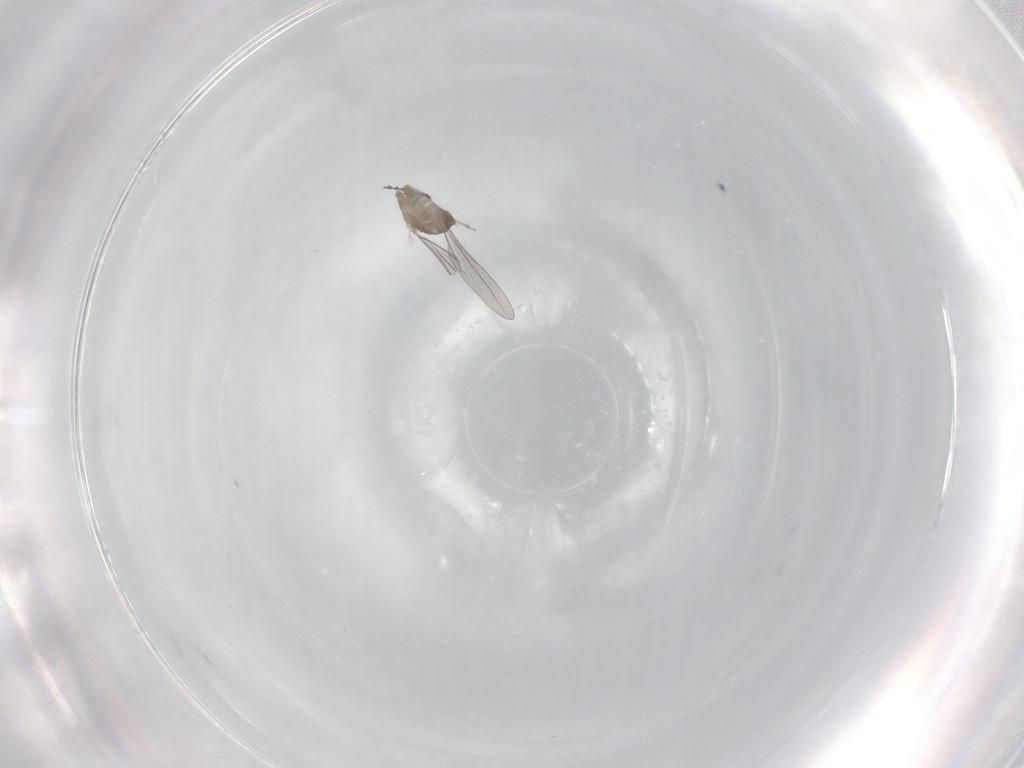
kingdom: Animalia
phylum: Arthropoda
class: Insecta
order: Diptera
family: Cecidomyiidae
